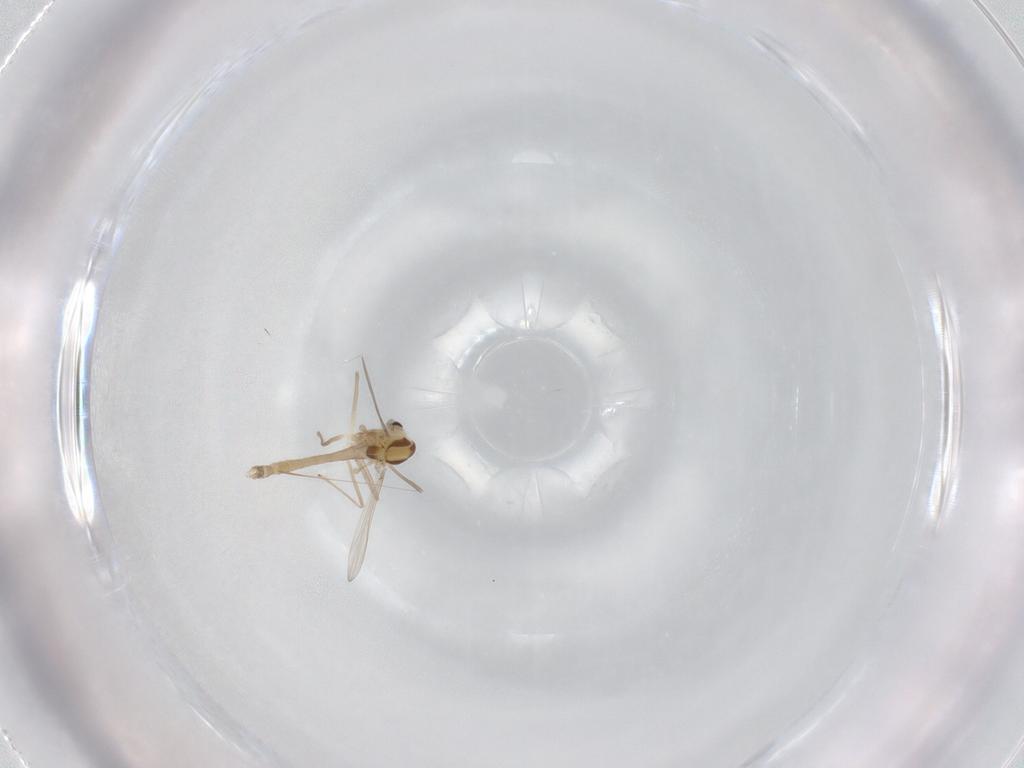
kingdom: Animalia
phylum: Arthropoda
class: Insecta
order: Diptera
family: Chironomidae
